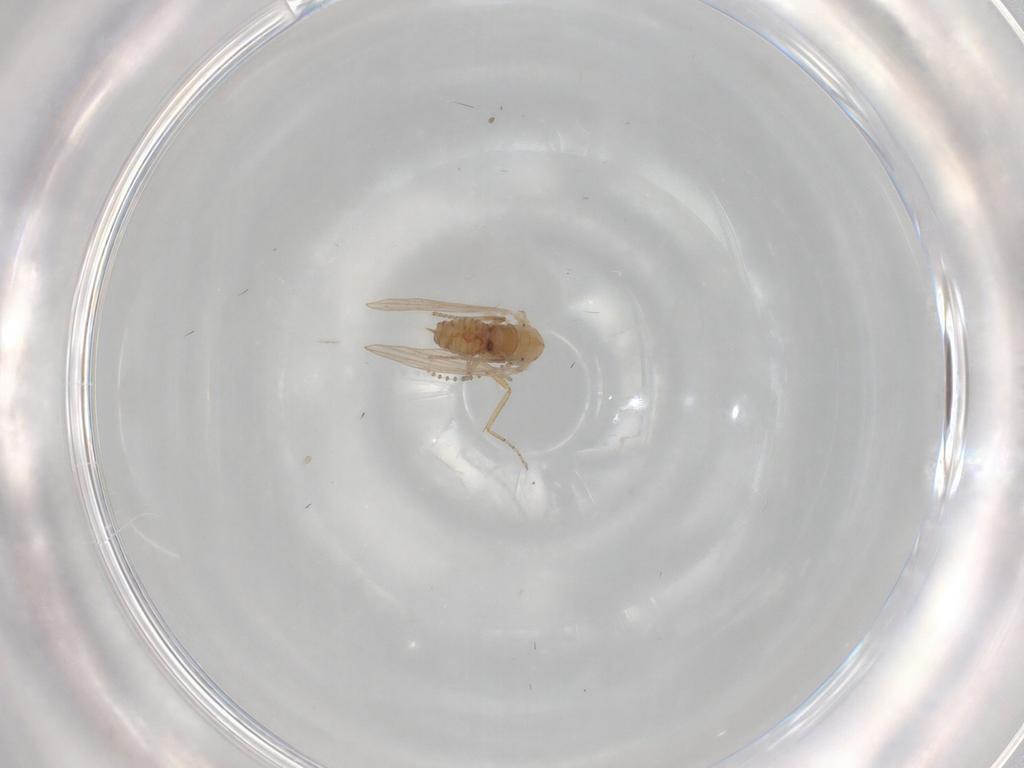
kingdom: Animalia
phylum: Arthropoda
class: Insecta
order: Diptera
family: Psychodidae
